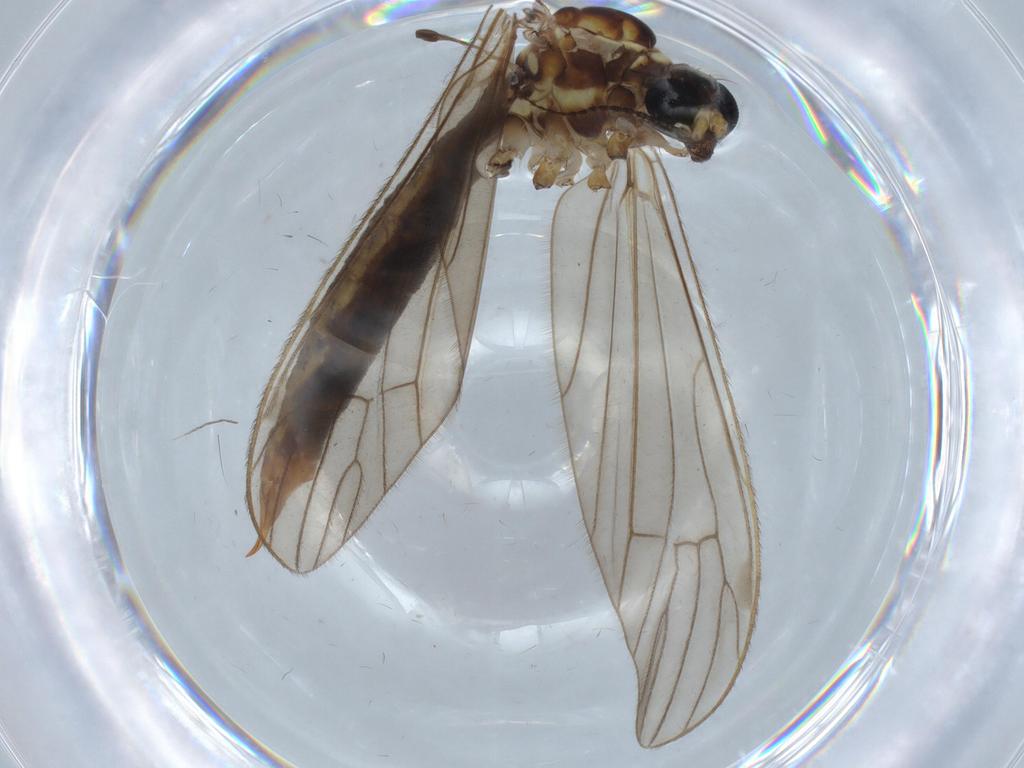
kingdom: Animalia
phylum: Arthropoda
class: Insecta
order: Diptera
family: Limoniidae
